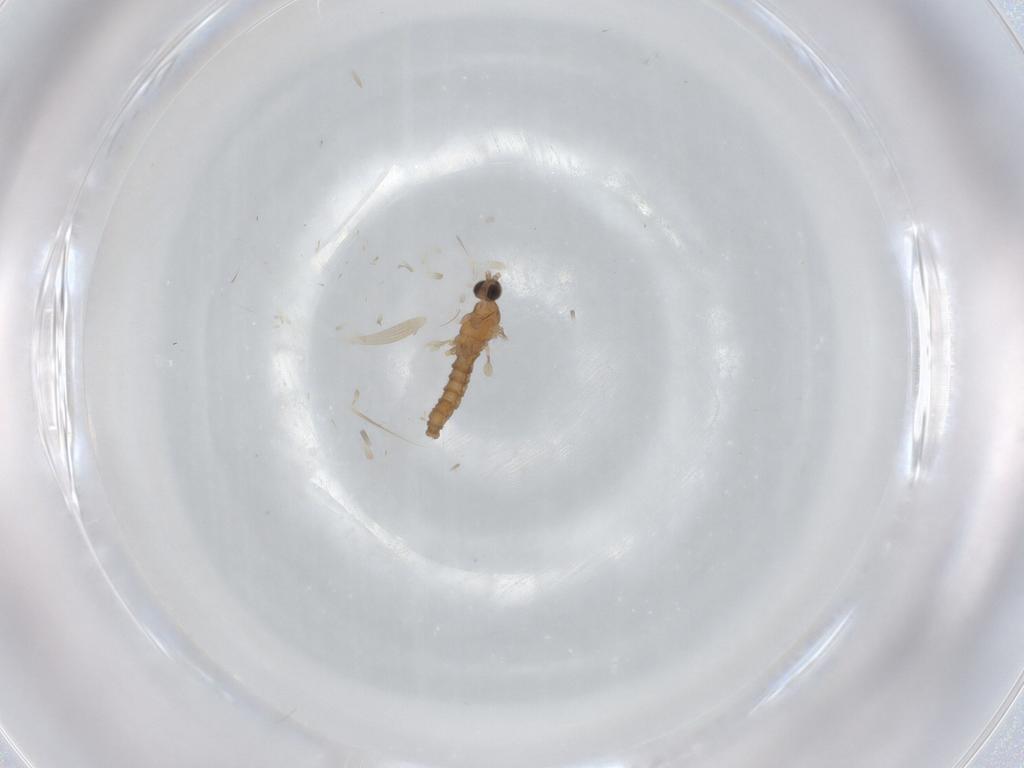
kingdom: Animalia
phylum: Arthropoda
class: Insecta
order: Diptera
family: Cecidomyiidae
